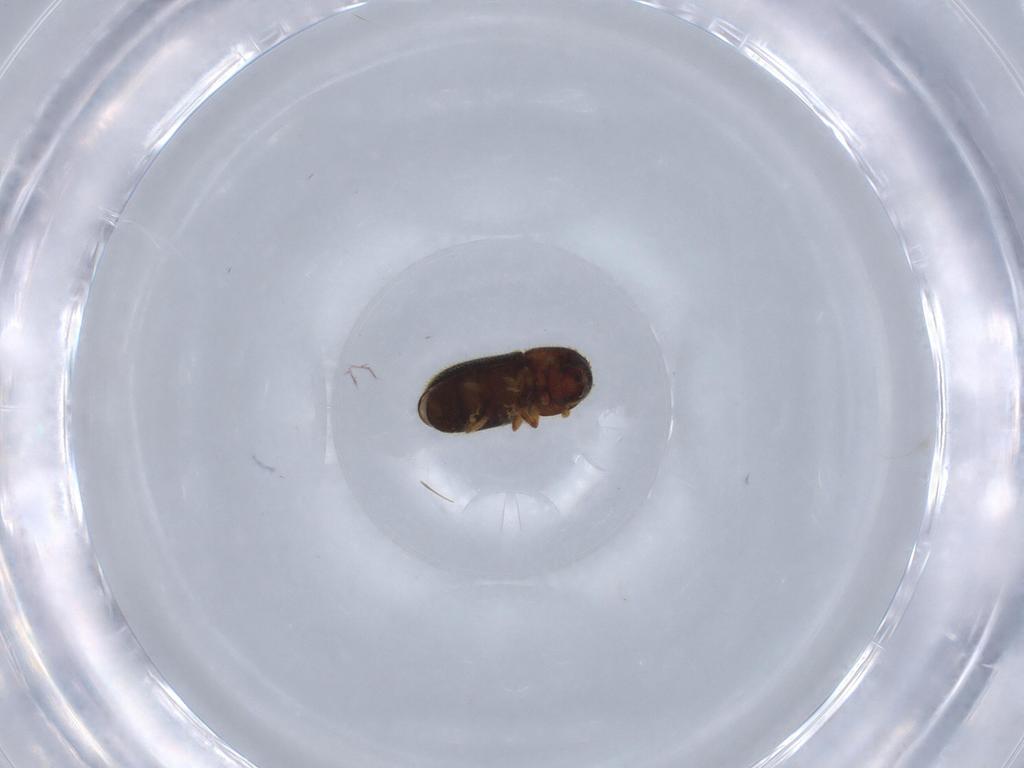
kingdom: Animalia
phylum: Arthropoda
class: Insecta
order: Coleoptera
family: Curculionidae
